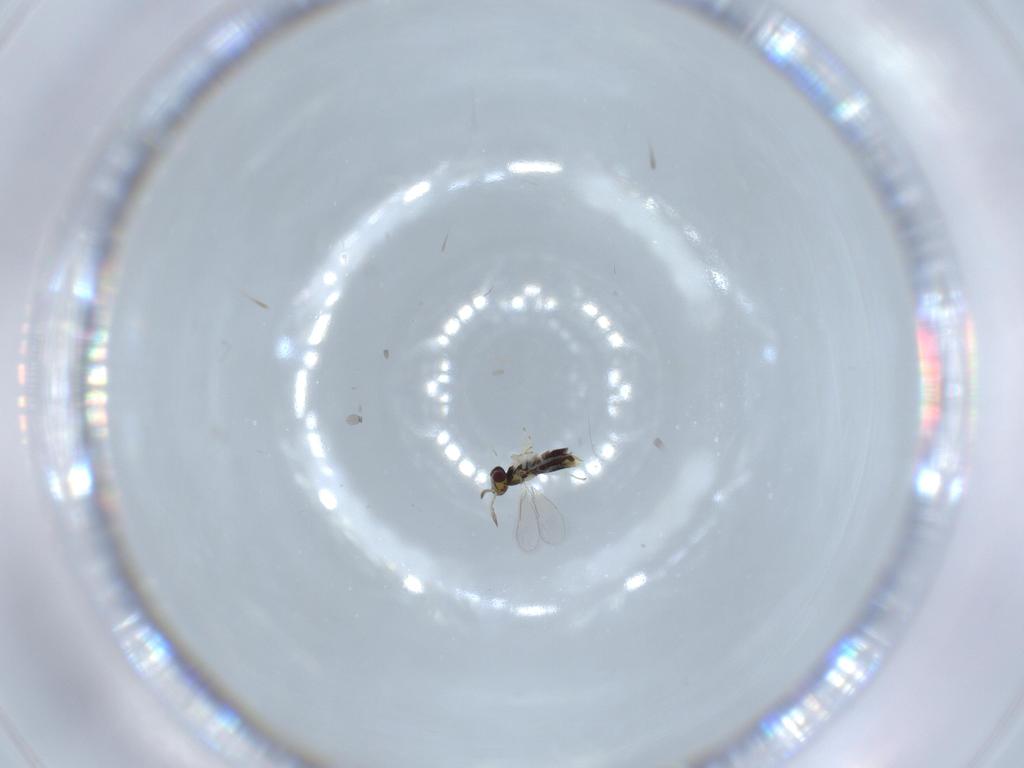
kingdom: Animalia
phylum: Arthropoda
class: Insecta
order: Hymenoptera
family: Aphelinidae
